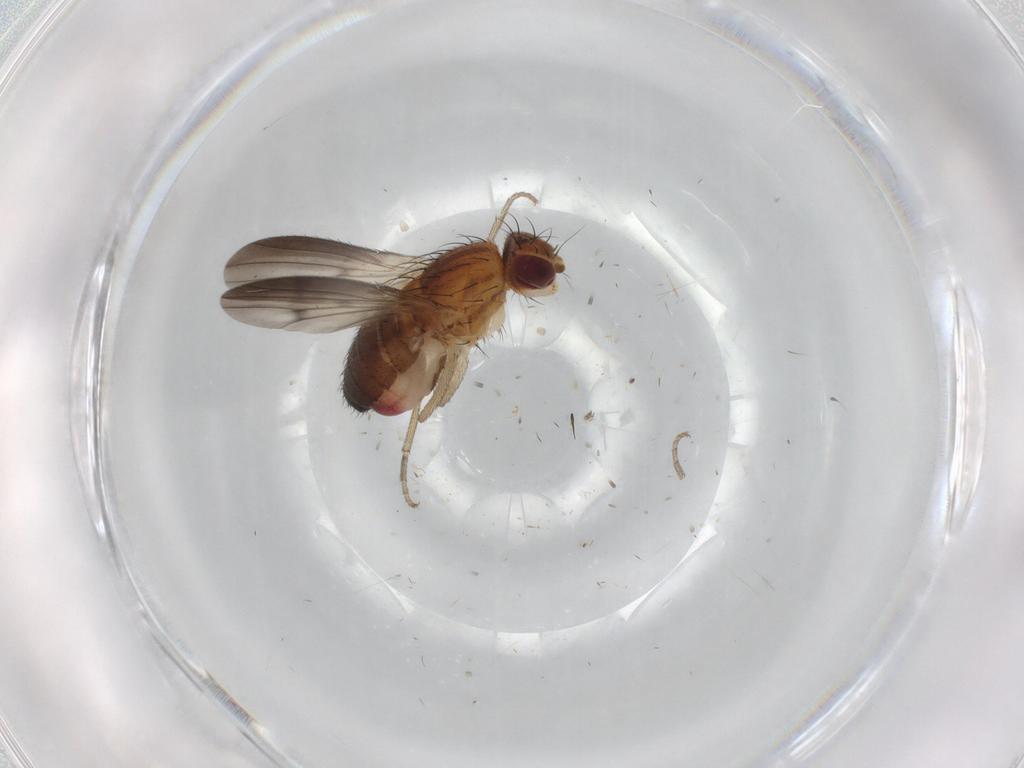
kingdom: Animalia
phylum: Arthropoda
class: Insecta
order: Diptera
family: Heleomyzidae
